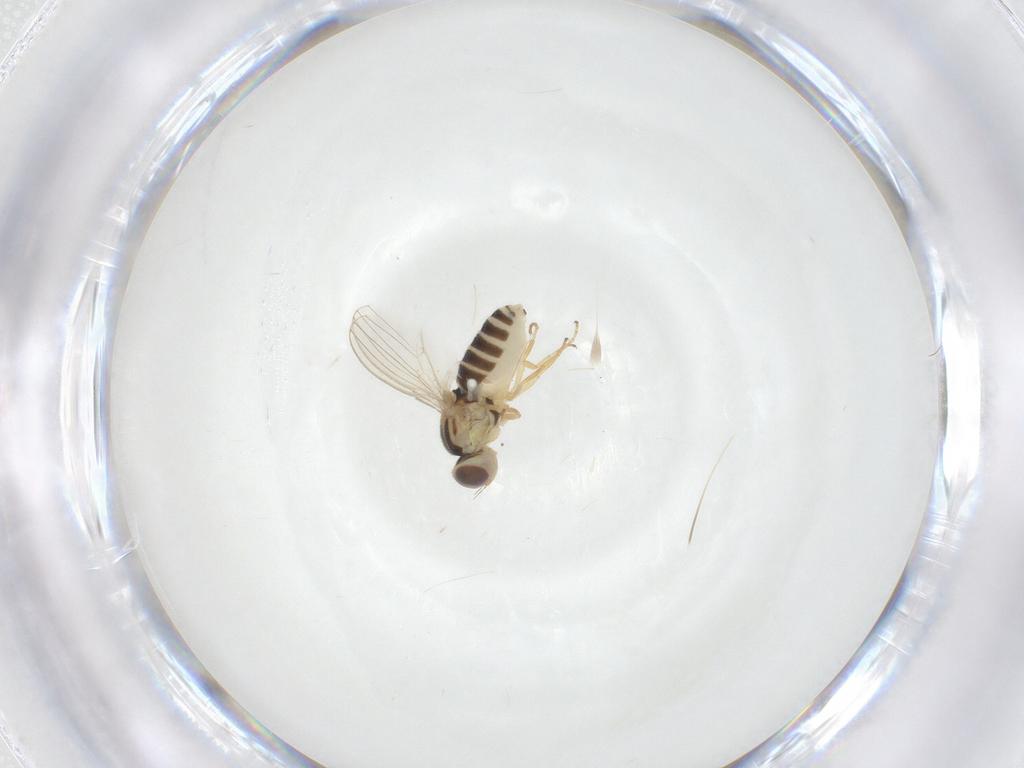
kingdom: Animalia
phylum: Arthropoda
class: Insecta
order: Diptera
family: Chyromyidae
